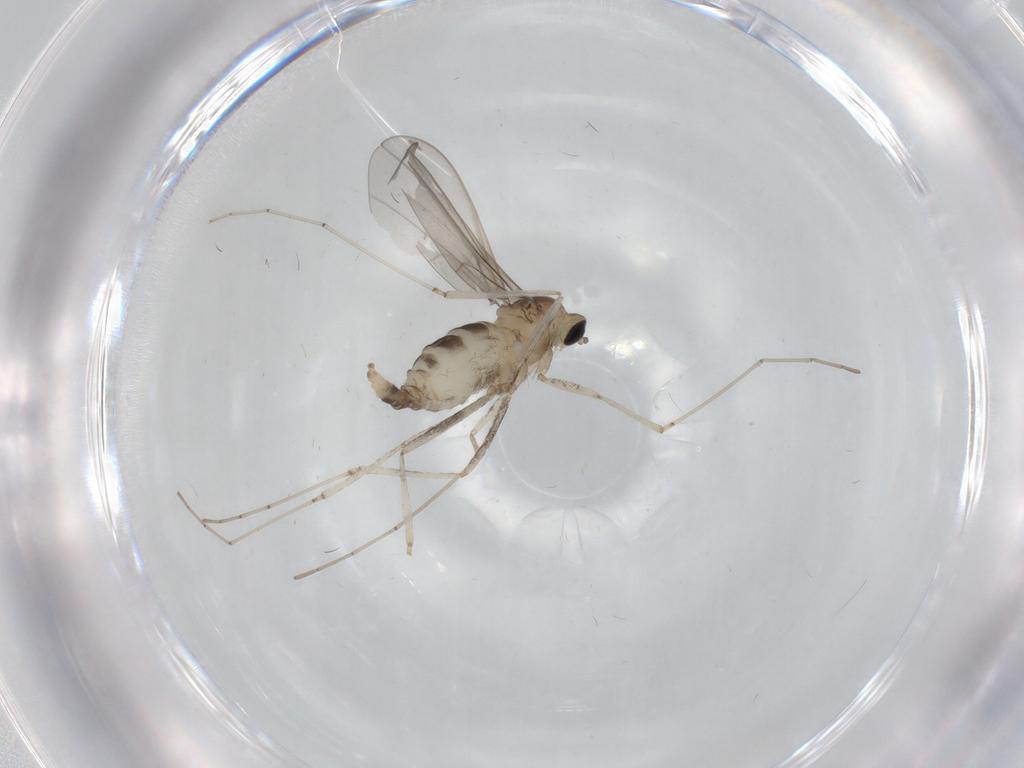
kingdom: Animalia
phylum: Arthropoda
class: Insecta
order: Diptera
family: Cecidomyiidae
